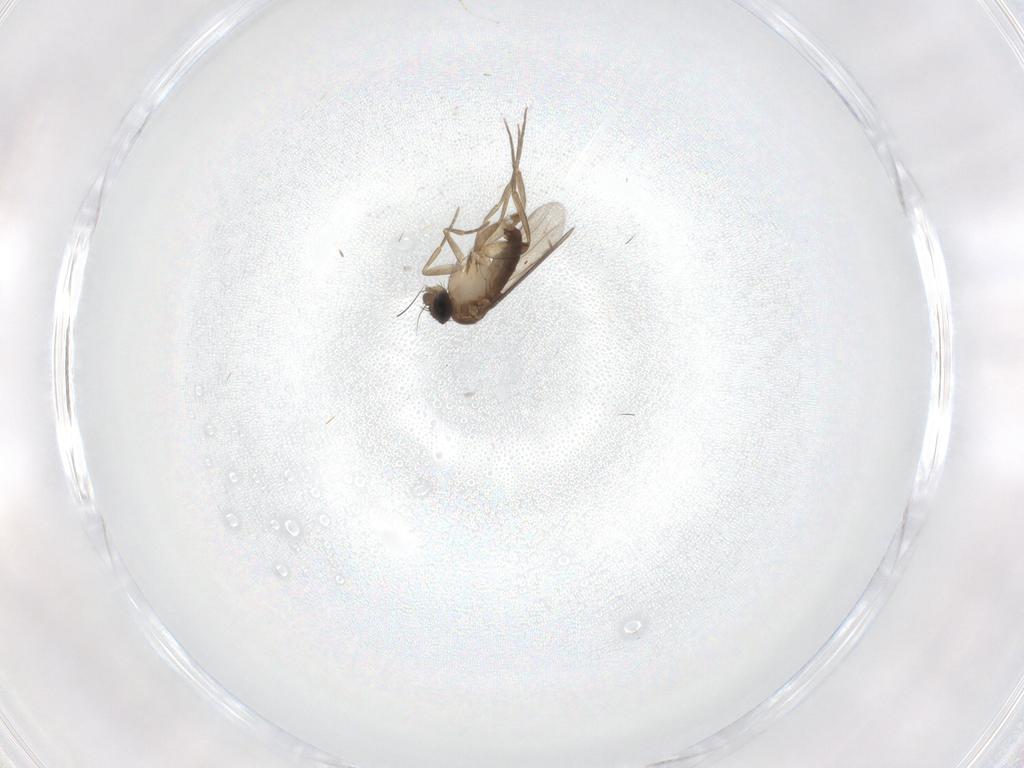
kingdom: Animalia
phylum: Arthropoda
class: Insecta
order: Diptera
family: Phoridae
